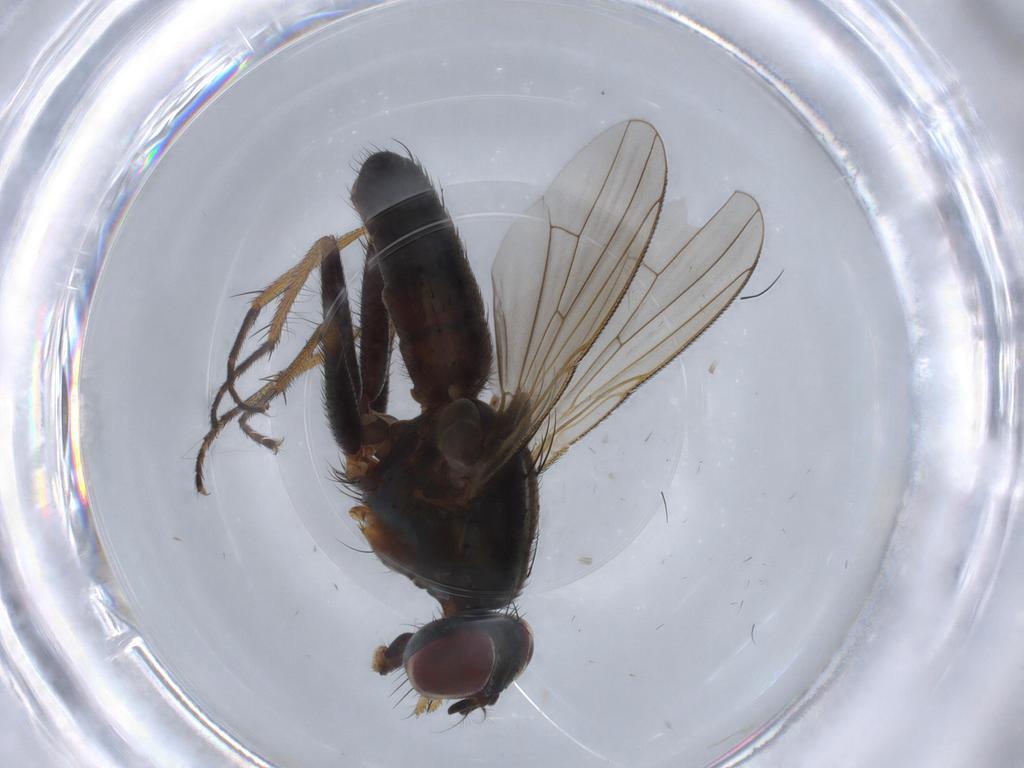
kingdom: Animalia
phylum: Arthropoda
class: Insecta
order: Diptera
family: Muscidae
